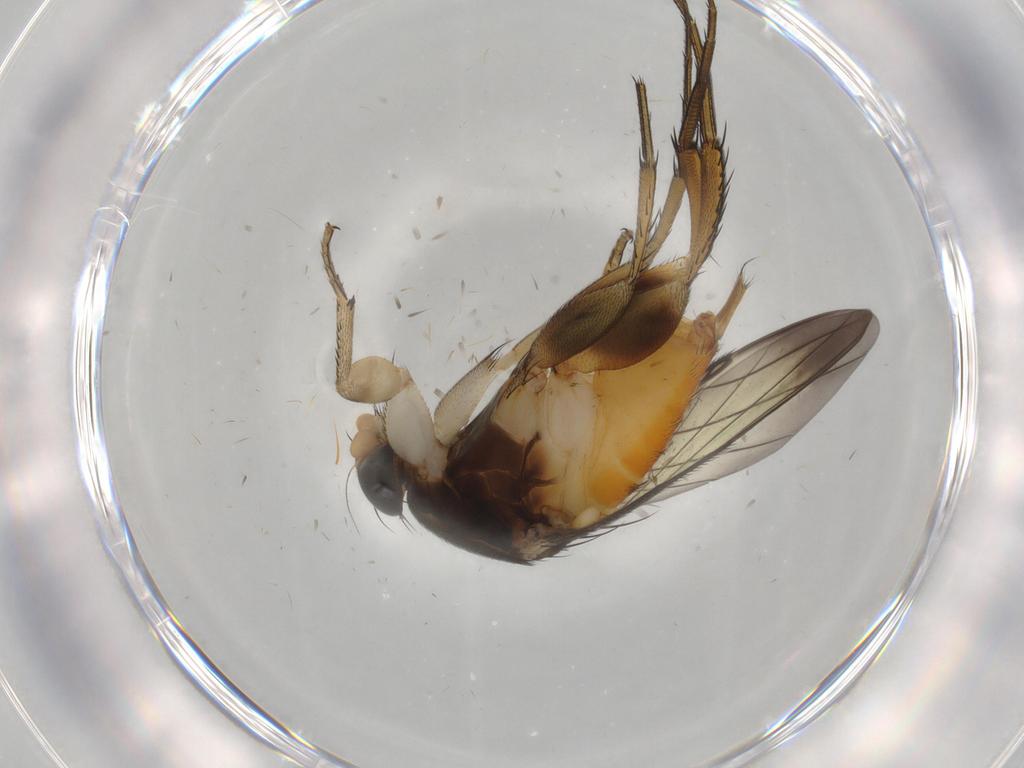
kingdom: Animalia
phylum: Arthropoda
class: Insecta
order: Diptera
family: Phoridae
